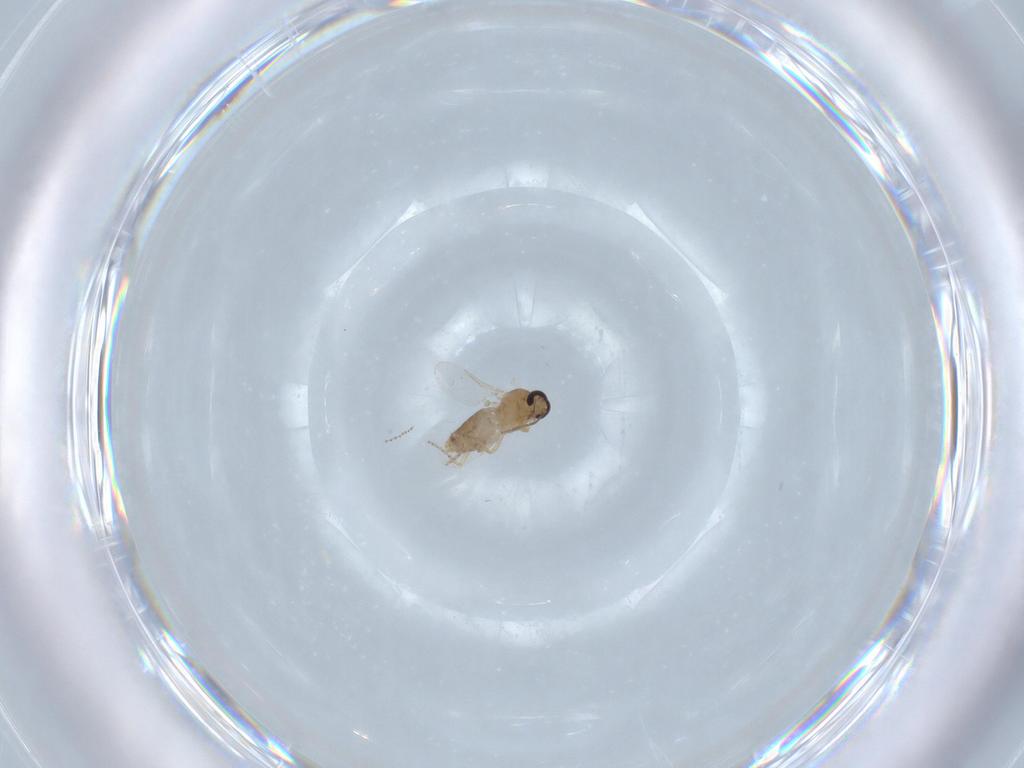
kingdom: Animalia
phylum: Arthropoda
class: Insecta
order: Diptera
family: Ceratopogonidae
